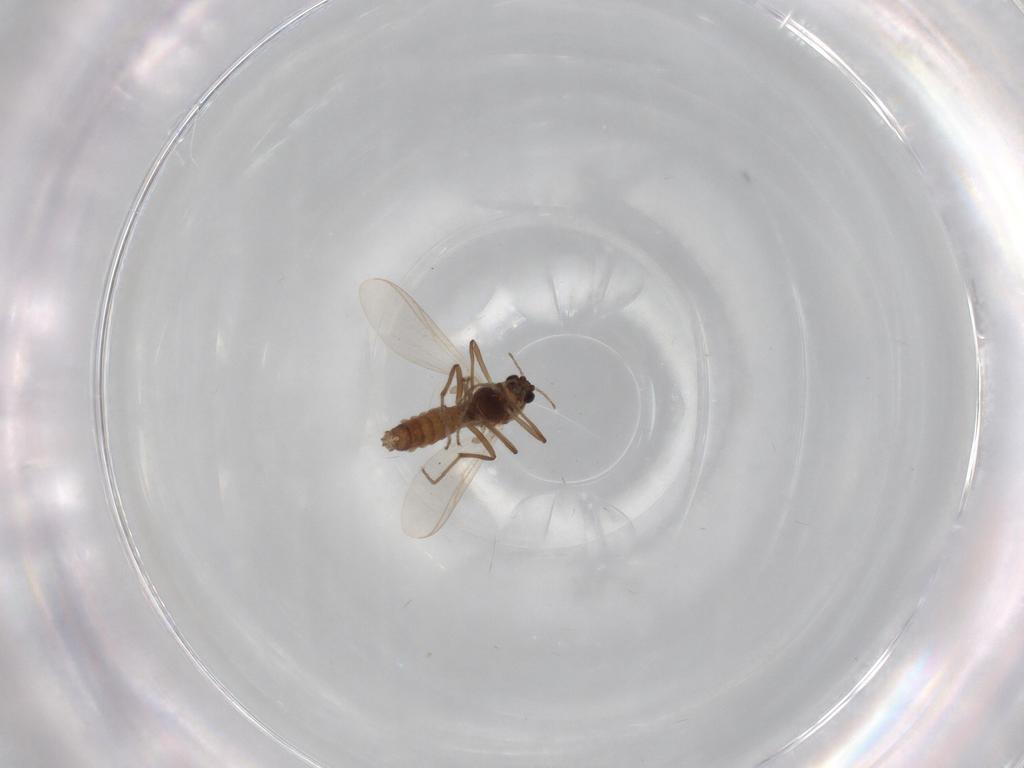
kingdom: Animalia
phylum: Arthropoda
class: Insecta
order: Diptera
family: Chironomidae
